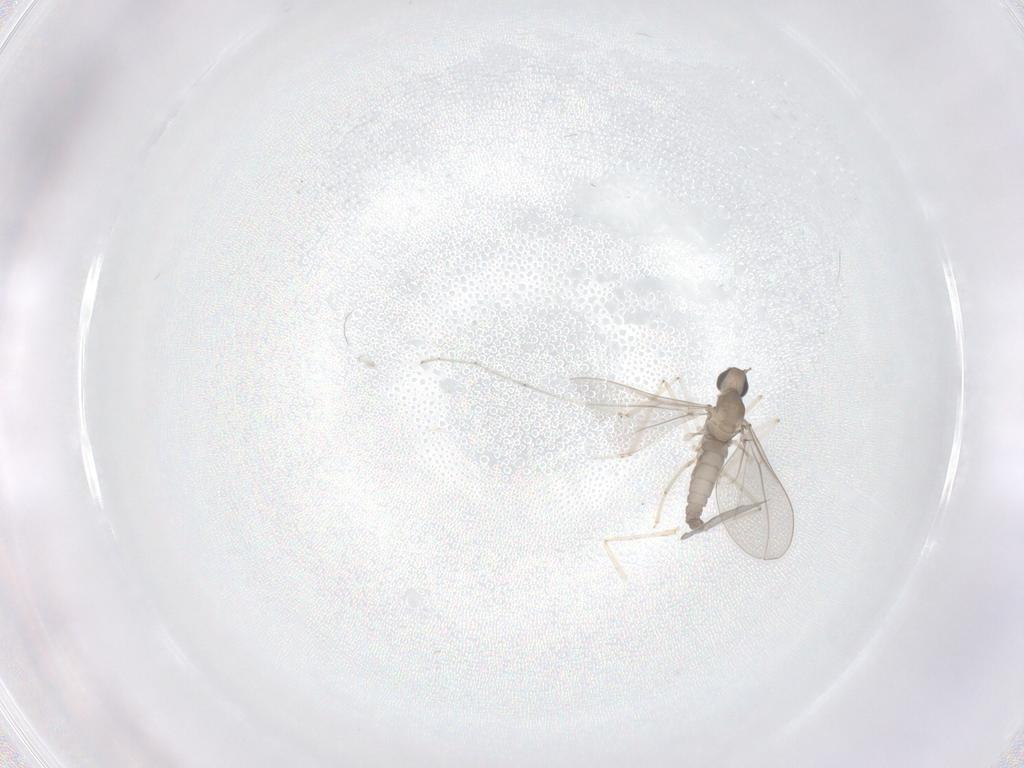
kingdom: Animalia
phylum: Arthropoda
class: Insecta
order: Diptera
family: Cecidomyiidae
